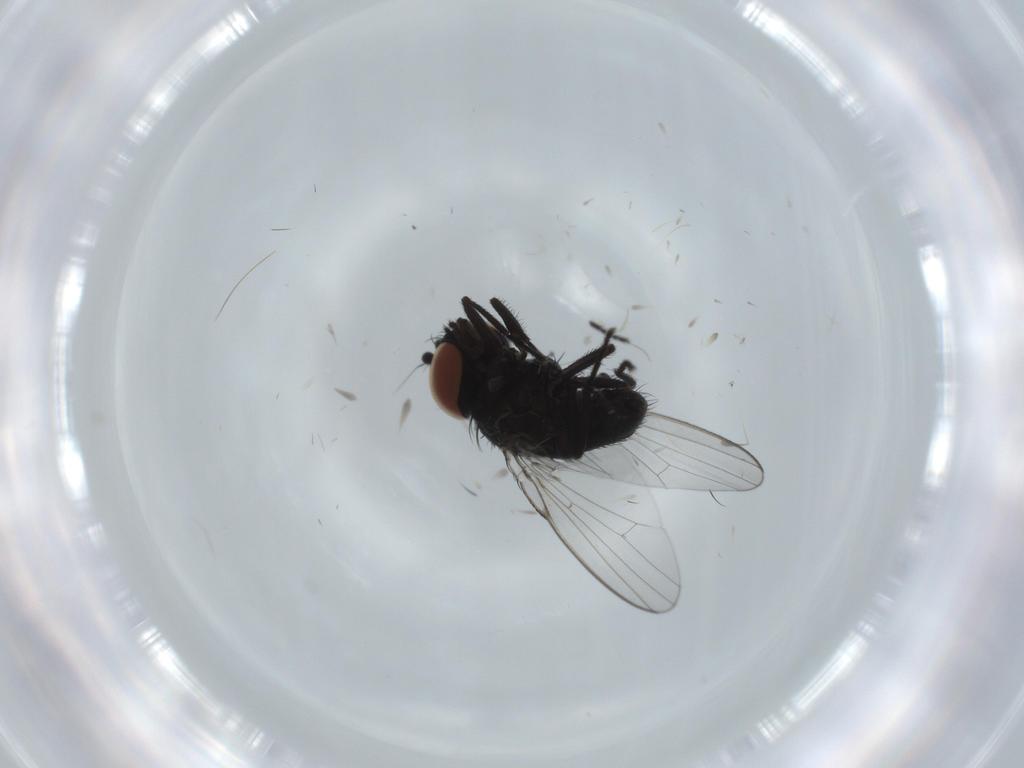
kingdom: Animalia
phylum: Arthropoda
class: Insecta
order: Diptera
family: Milichiidae
